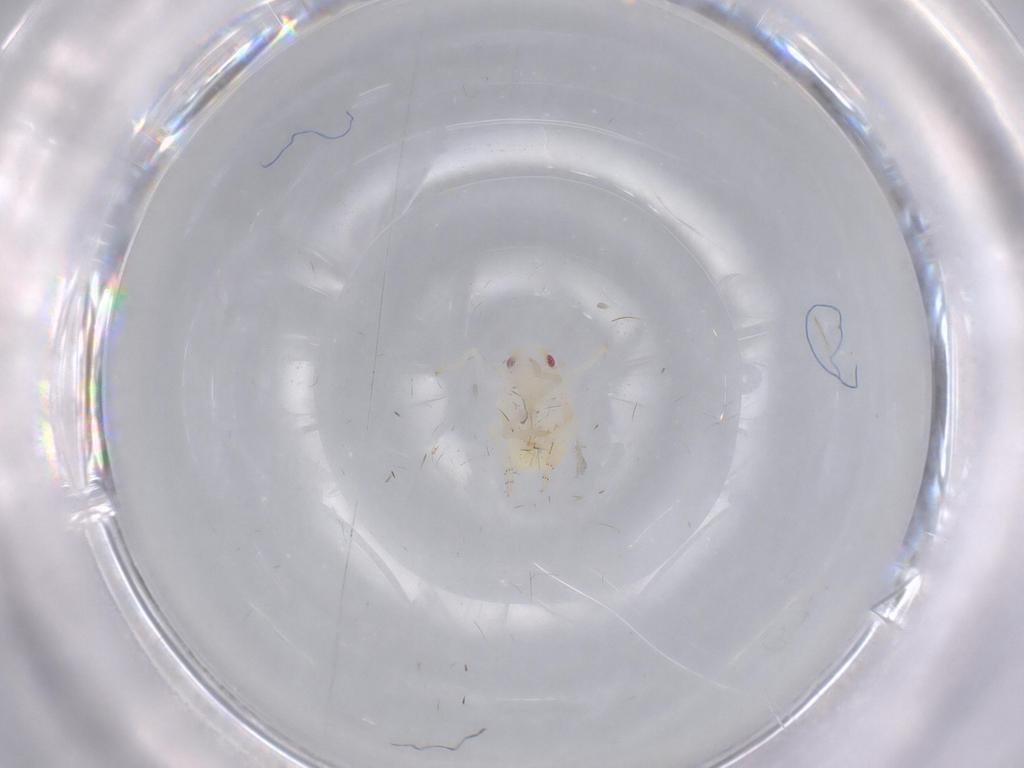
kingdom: Animalia
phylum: Arthropoda
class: Insecta
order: Hemiptera
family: Flatidae
